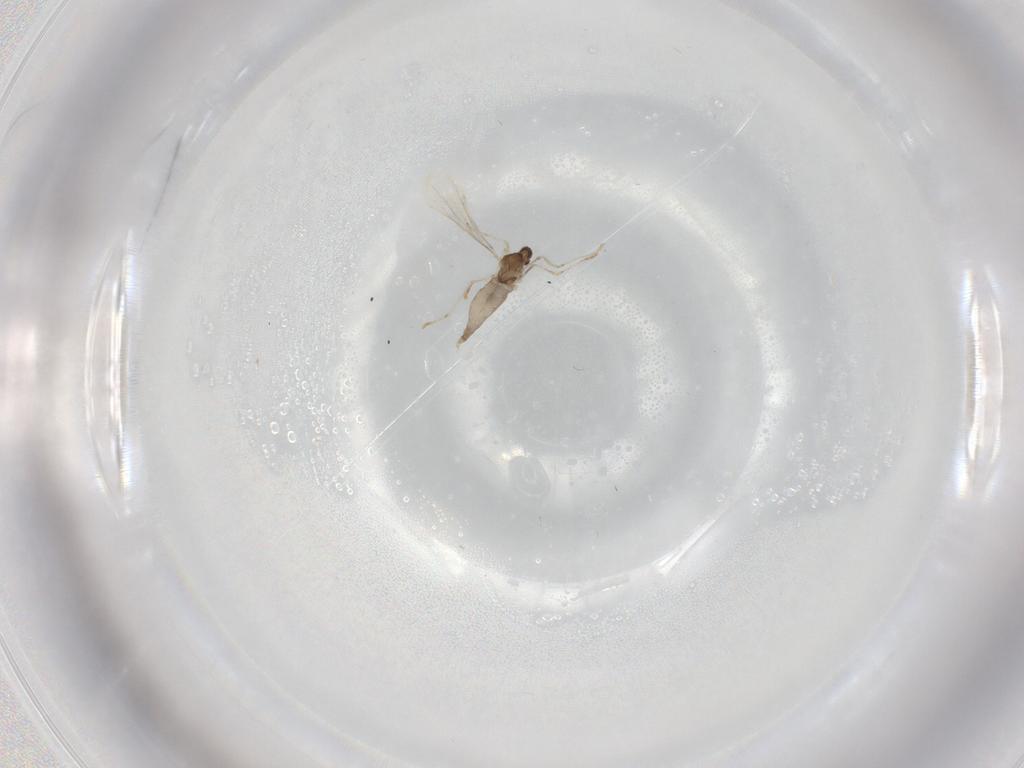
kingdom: Animalia
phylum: Arthropoda
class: Insecta
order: Diptera
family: Cecidomyiidae
